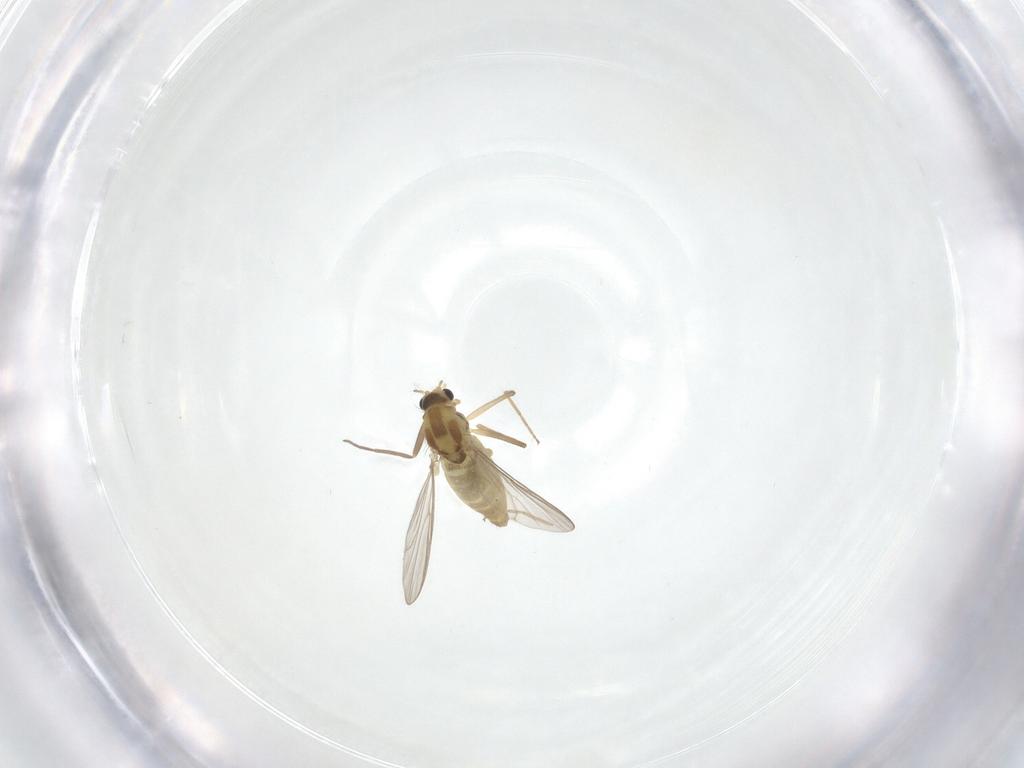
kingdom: Animalia
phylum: Arthropoda
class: Insecta
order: Diptera
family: Chironomidae
